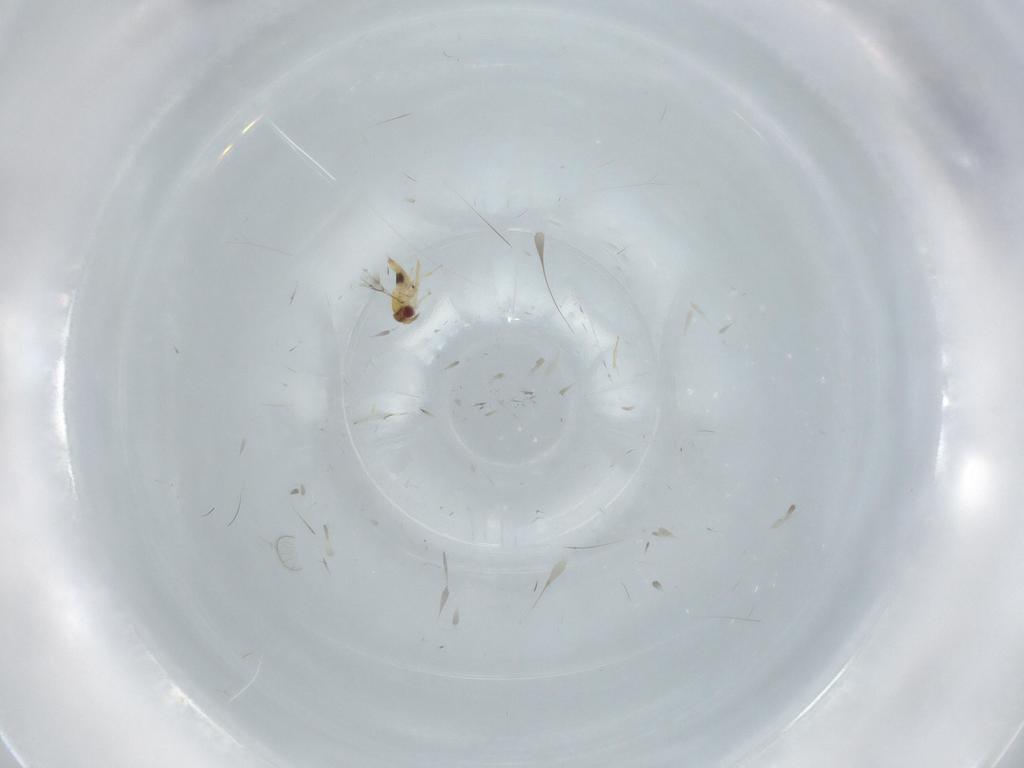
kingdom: Animalia
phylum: Arthropoda
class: Insecta
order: Hymenoptera
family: Trichogrammatidae
